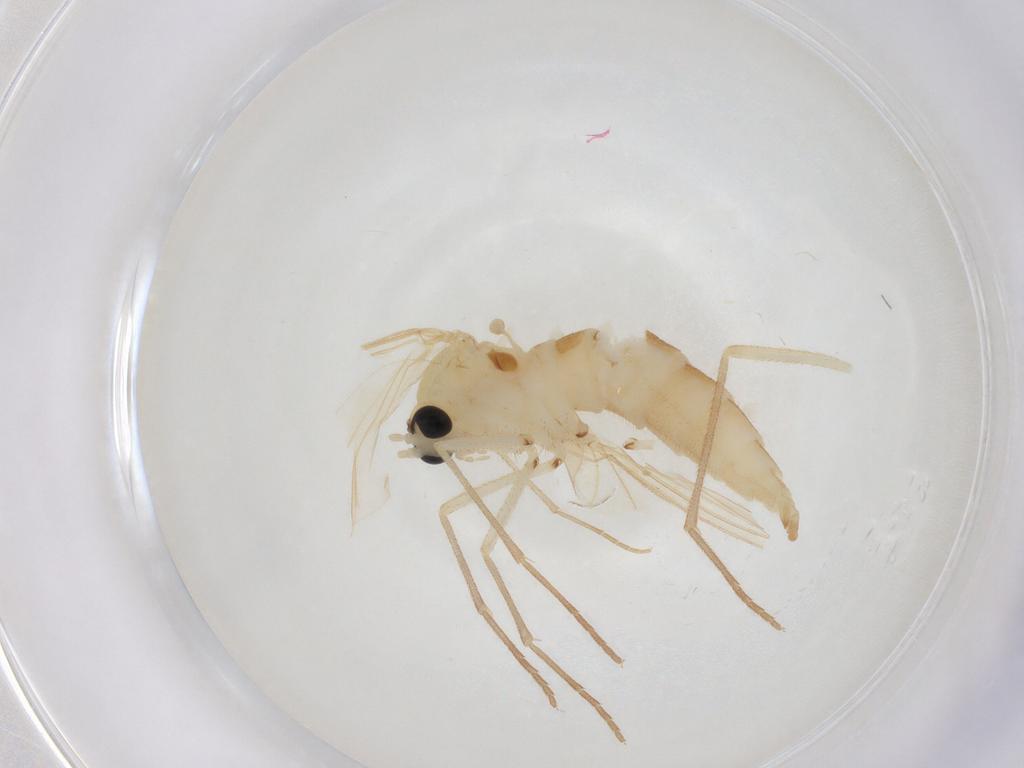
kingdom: Animalia
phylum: Arthropoda
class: Insecta
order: Diptera
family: Sciaridae
